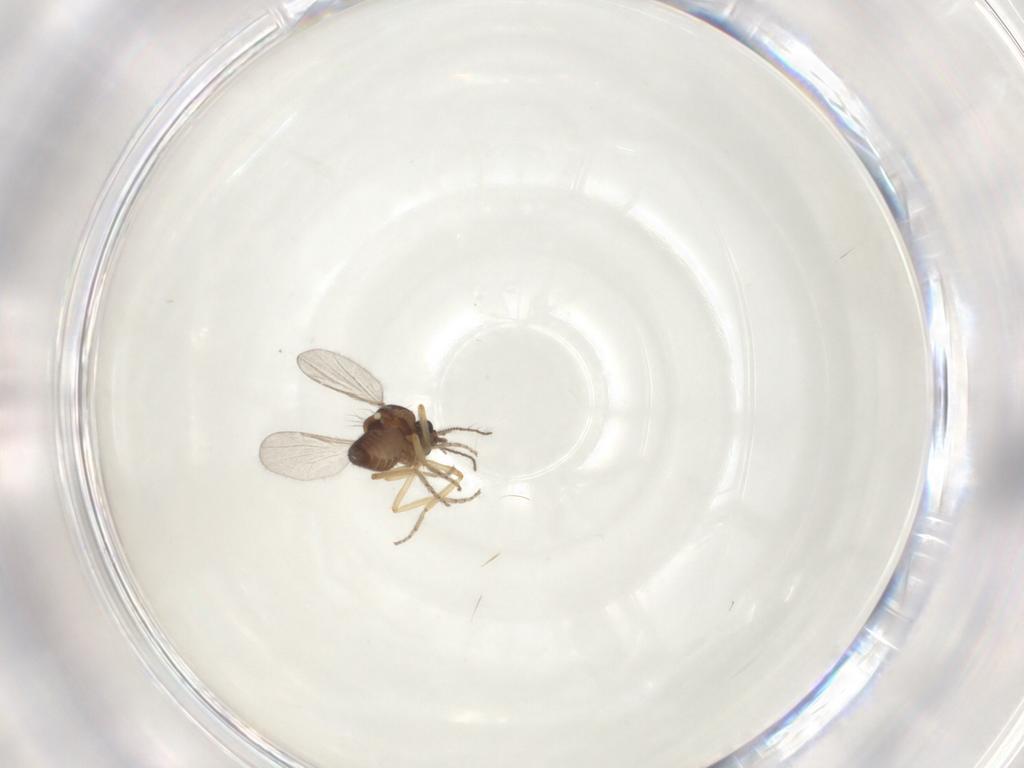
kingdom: Animalia
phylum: Arthropoda
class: Insecta
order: Diptera
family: Ceratopogonidae
